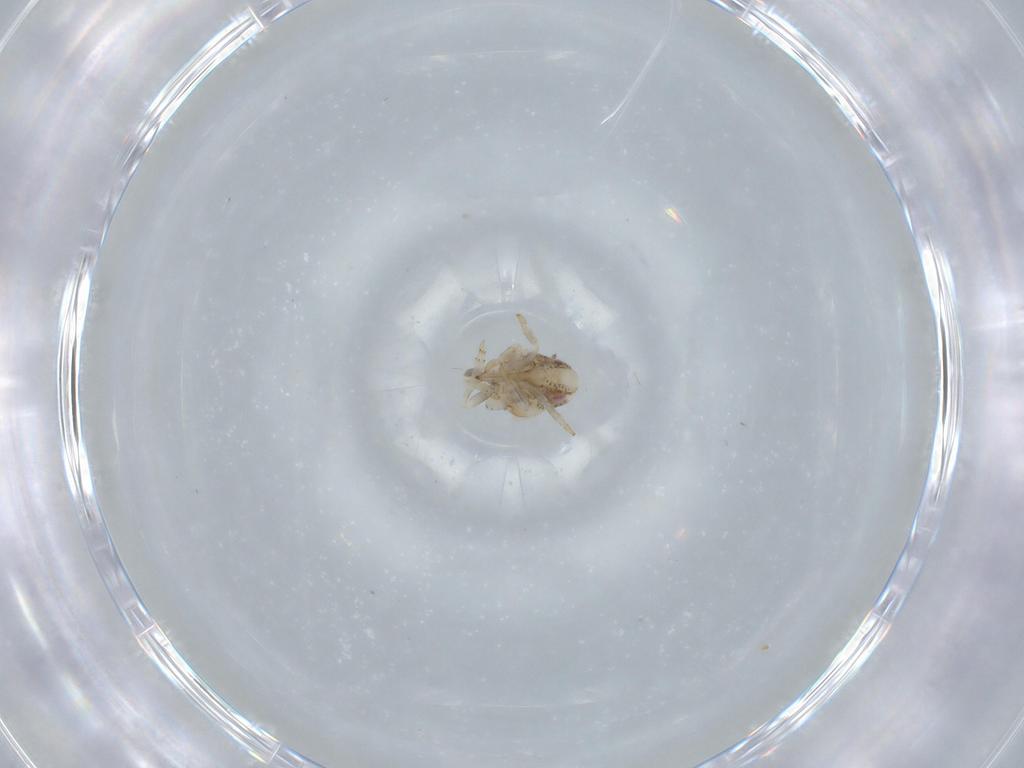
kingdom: Animalia
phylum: Arthropoda
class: Insecta
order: Hemiptera
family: Acanaloniidae
